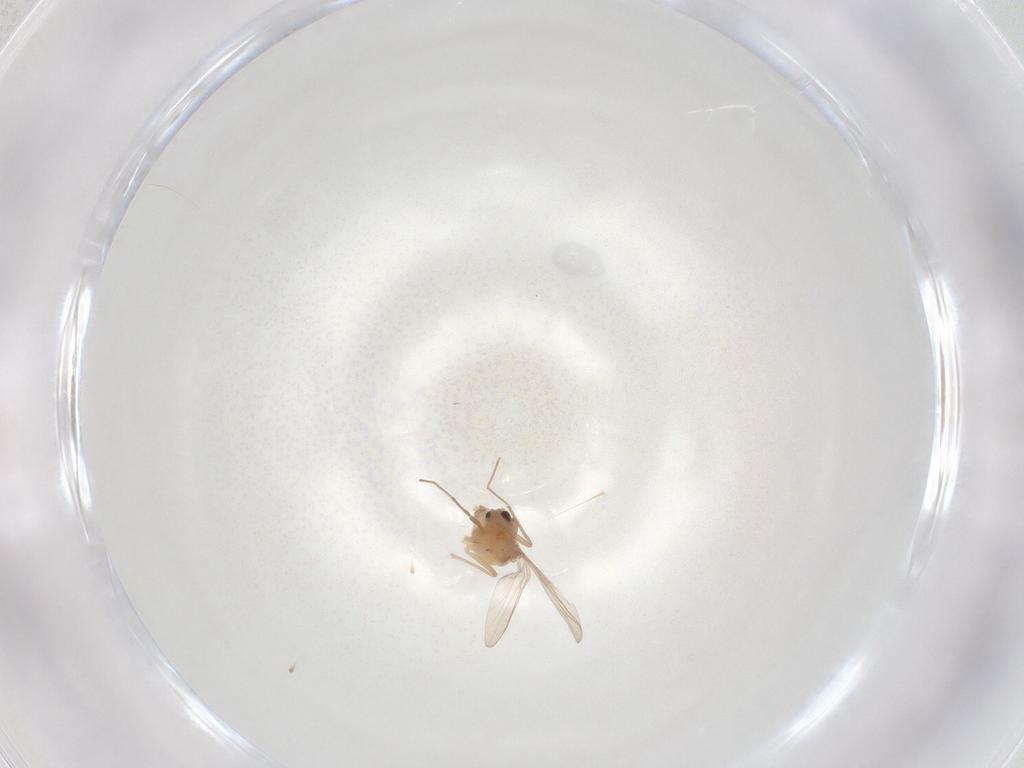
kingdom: Animalia
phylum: Arthropoda
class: Insecta
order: Diptera
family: Chironomidae
